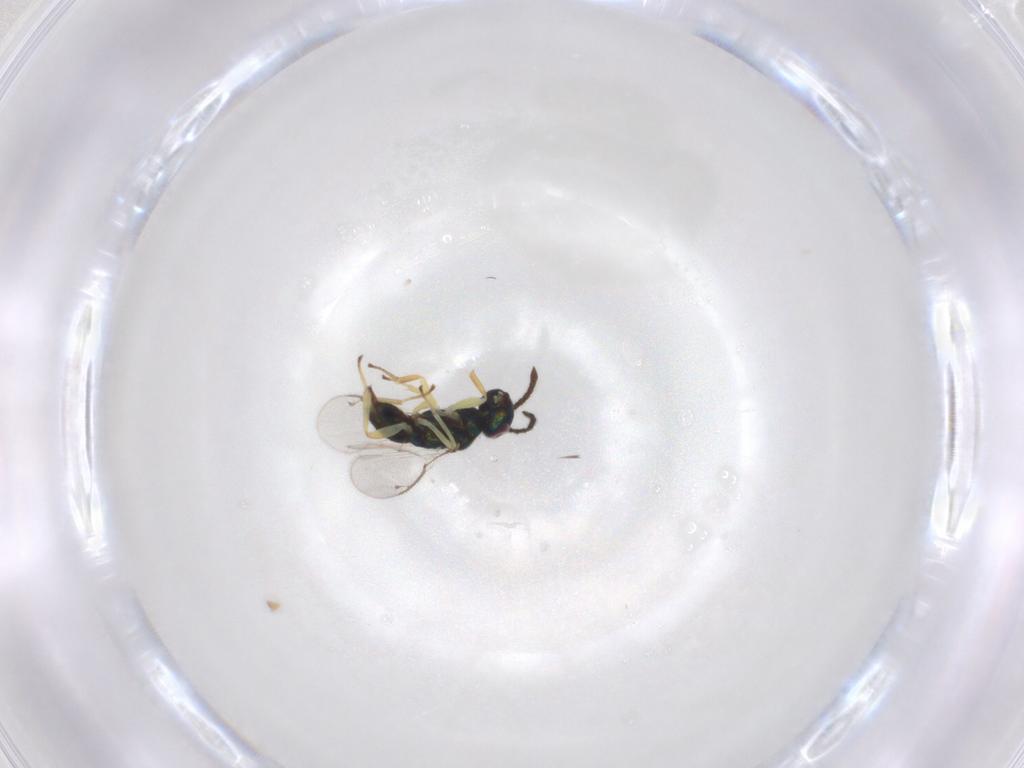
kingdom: Animalia
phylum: Arthropoda
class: Insecta
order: Hymenoptera
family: Eupelmidae
